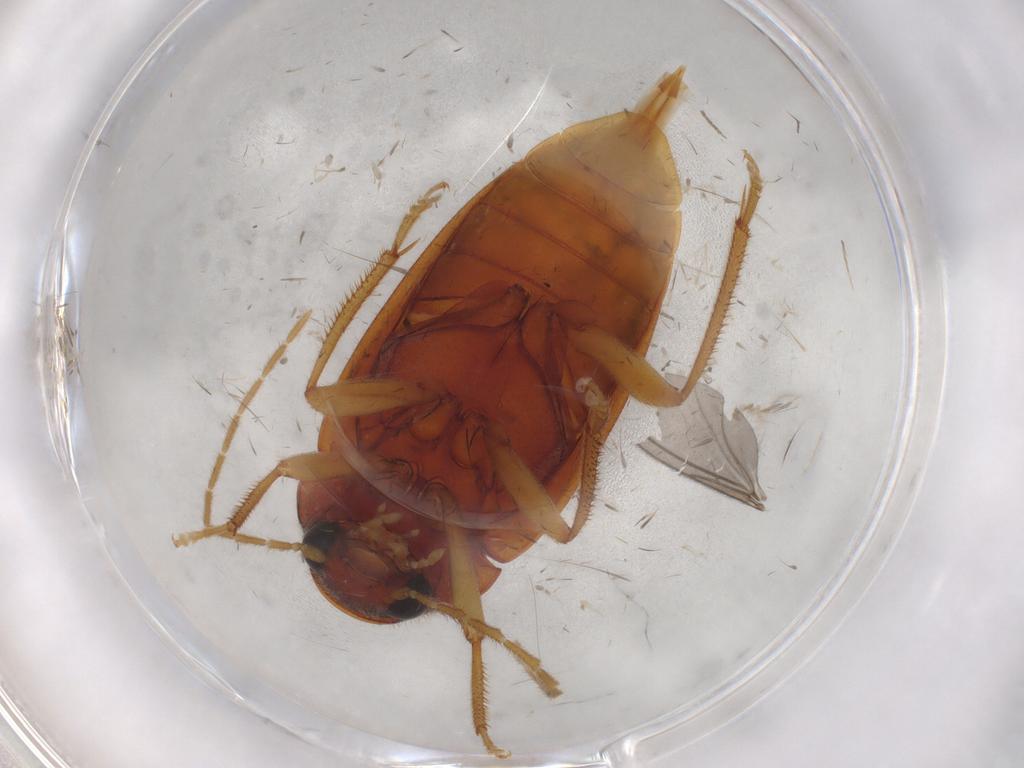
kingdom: Animalia
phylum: Arthropoda
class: Insecta
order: Coleoptera
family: Ptilodactylidae
